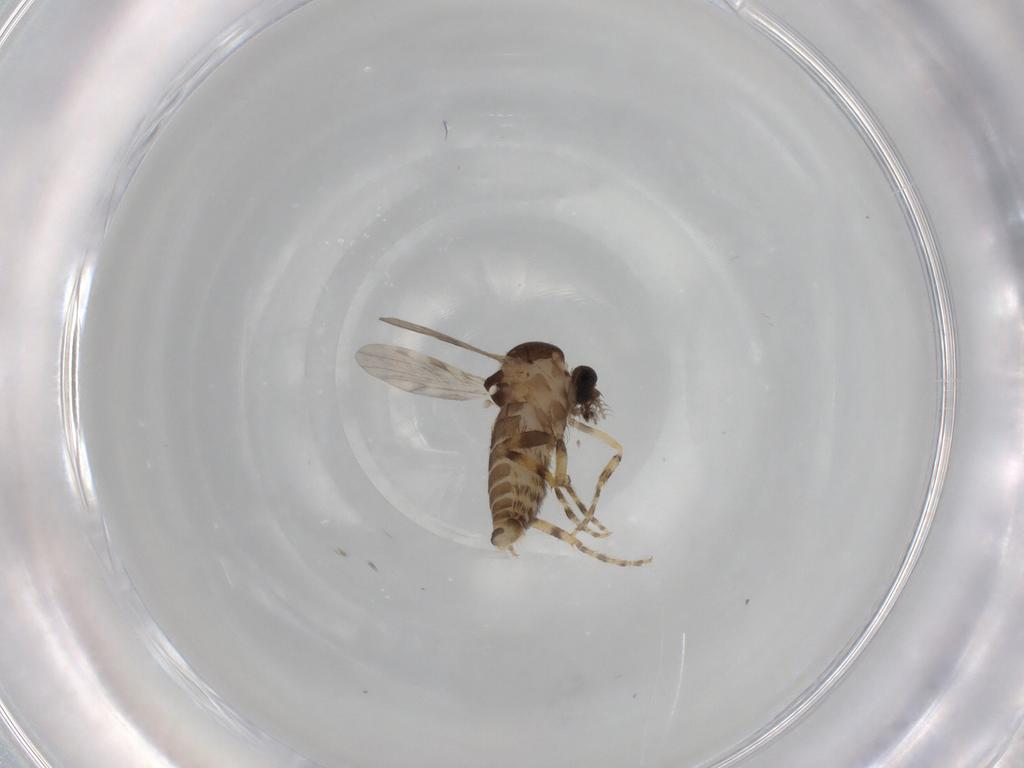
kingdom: Animalia
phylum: Arthropoda
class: Insecta
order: Diptera
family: Ceratopogonidae
